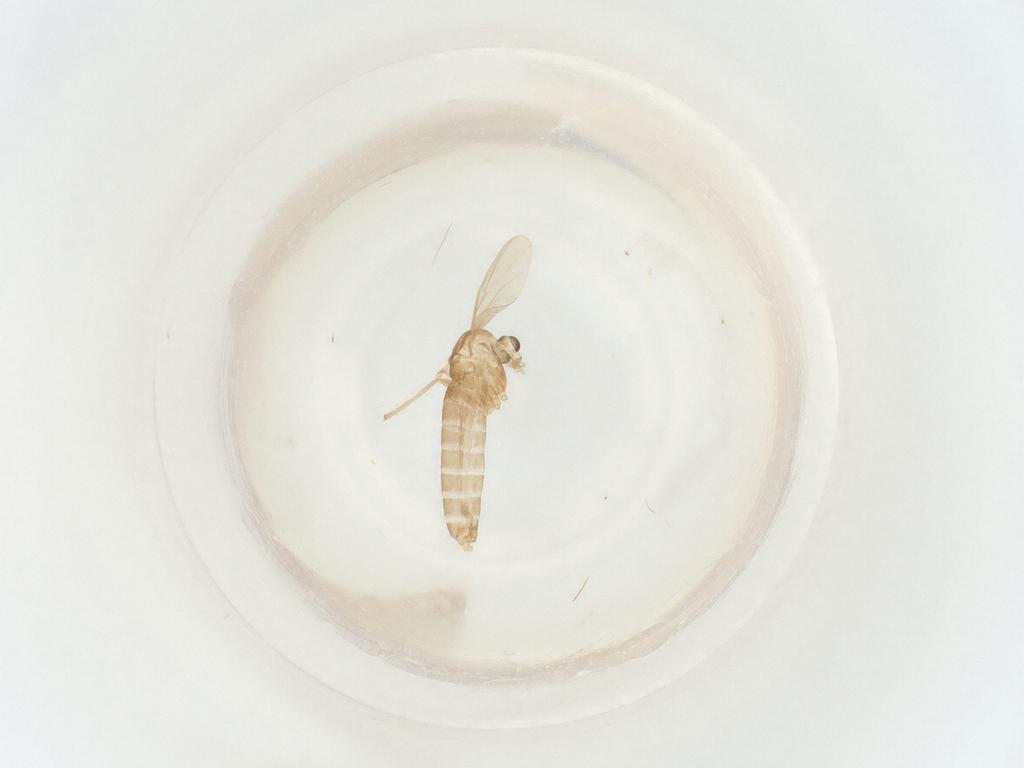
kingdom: Animalia
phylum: Arthropoda
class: Insecta
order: Diptera
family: Chironomidae
